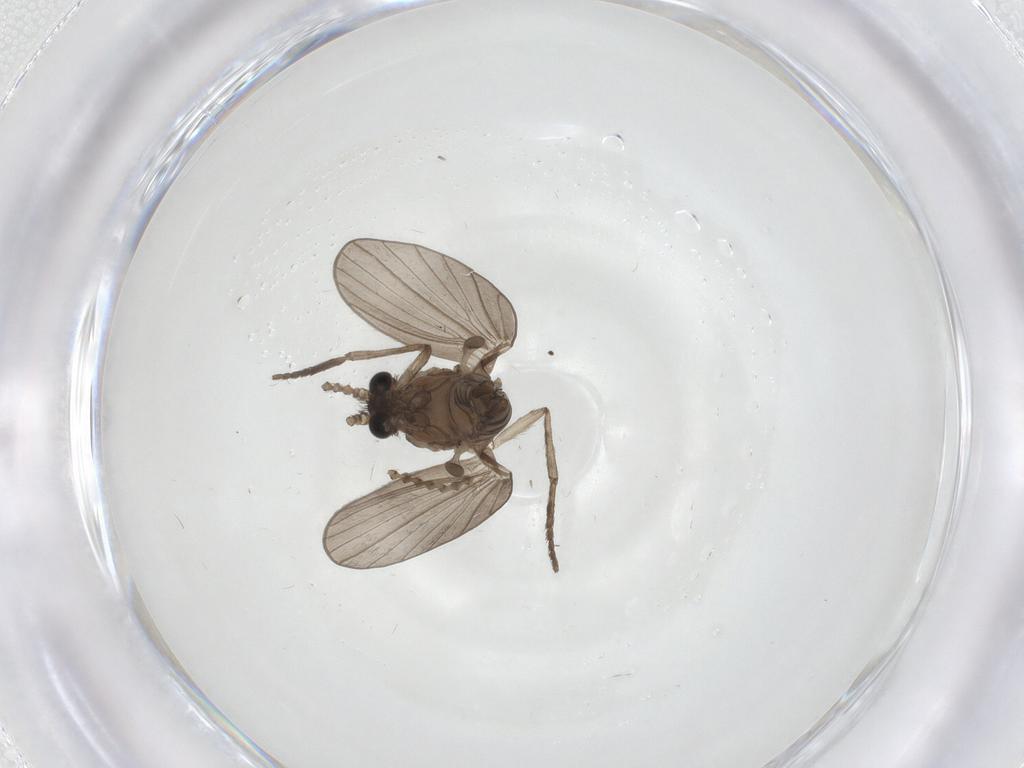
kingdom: Animalia
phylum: Arthropoda
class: Insecta
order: Diptera
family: Psychodidae
